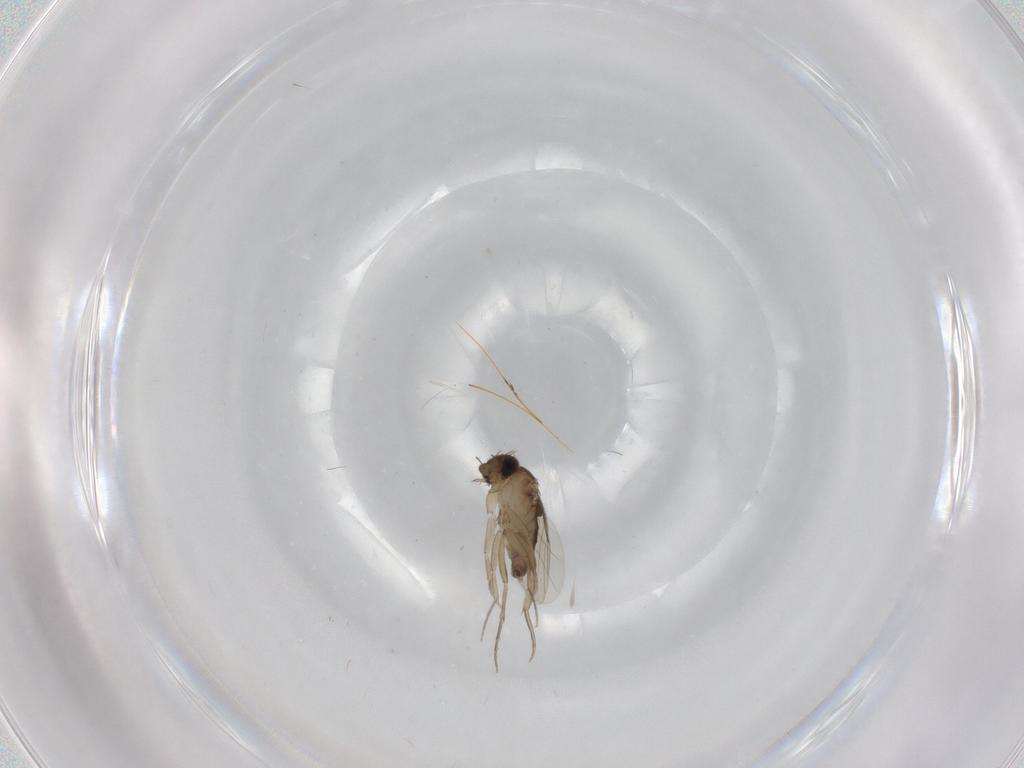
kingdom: Animalia
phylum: Arthropoda
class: Insecta
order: Diptera
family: Phoridae
